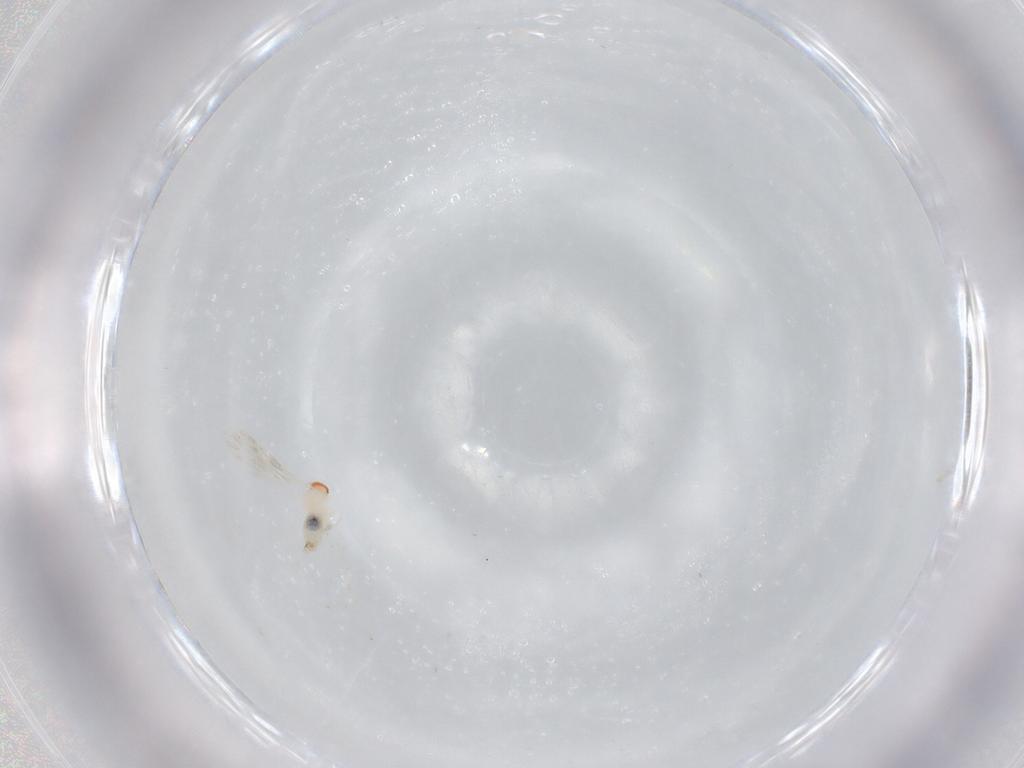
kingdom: Animalia
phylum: Arthropoda
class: Insecta
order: Diptera
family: Cecidomyiidae
